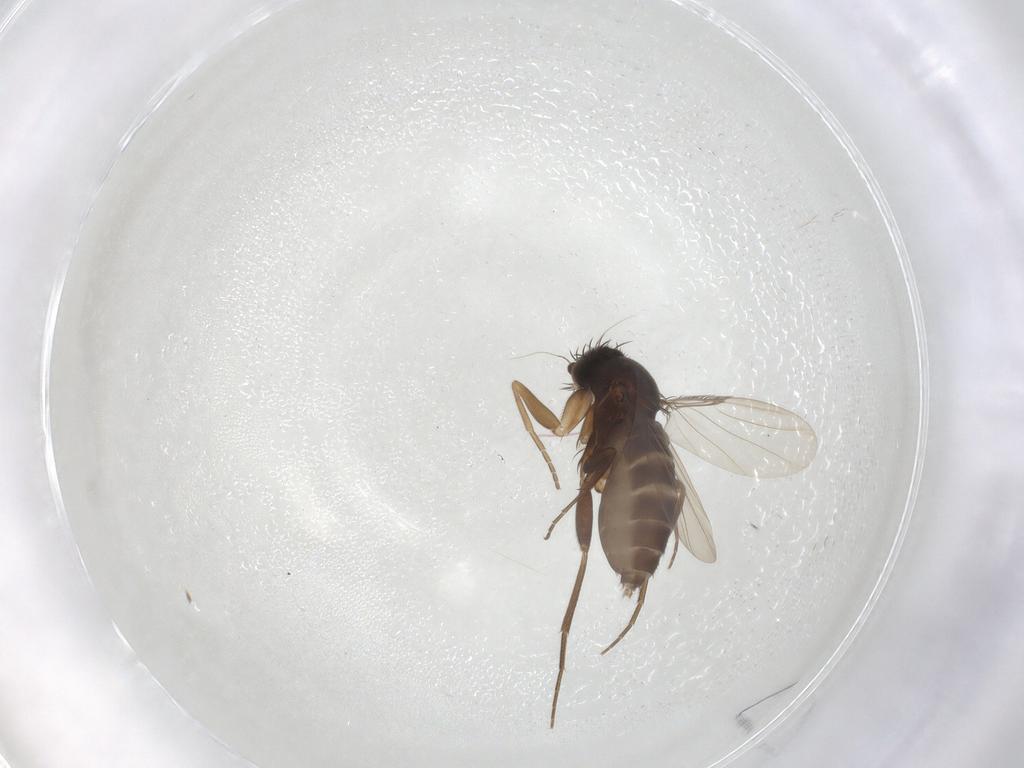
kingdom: Animalia
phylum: Arthropoda
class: Insecta
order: Diptera
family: Phoridae
